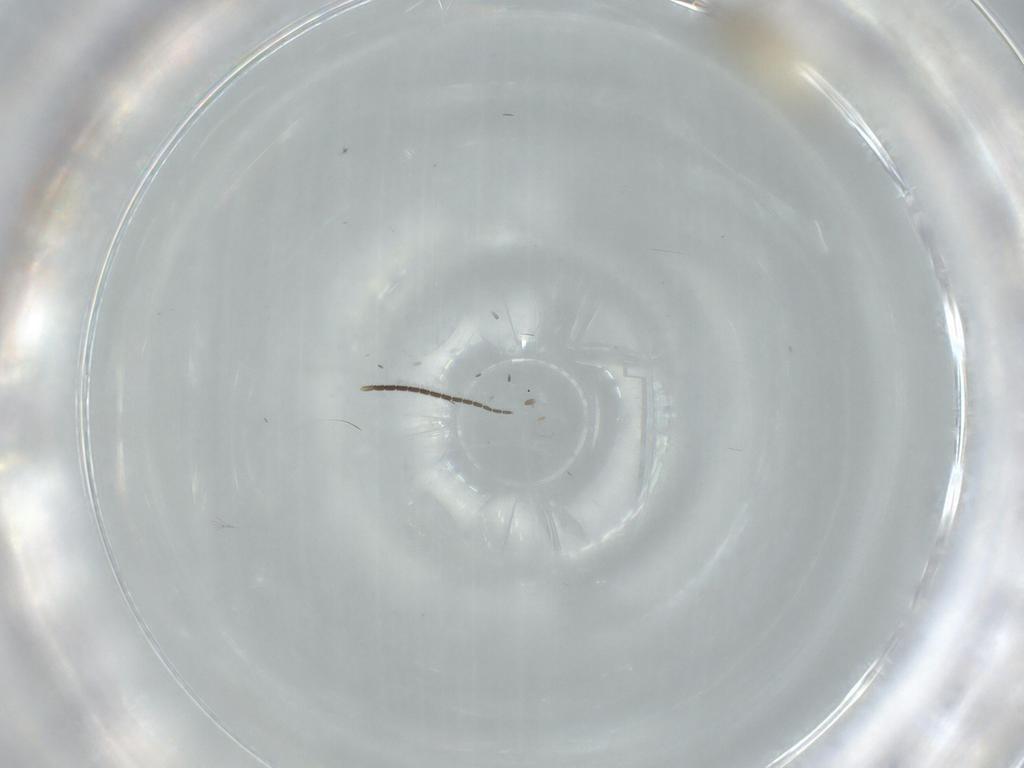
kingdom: Animalia
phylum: Arthropoda
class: Insecta
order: Diptera
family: Cecidomyiidae
